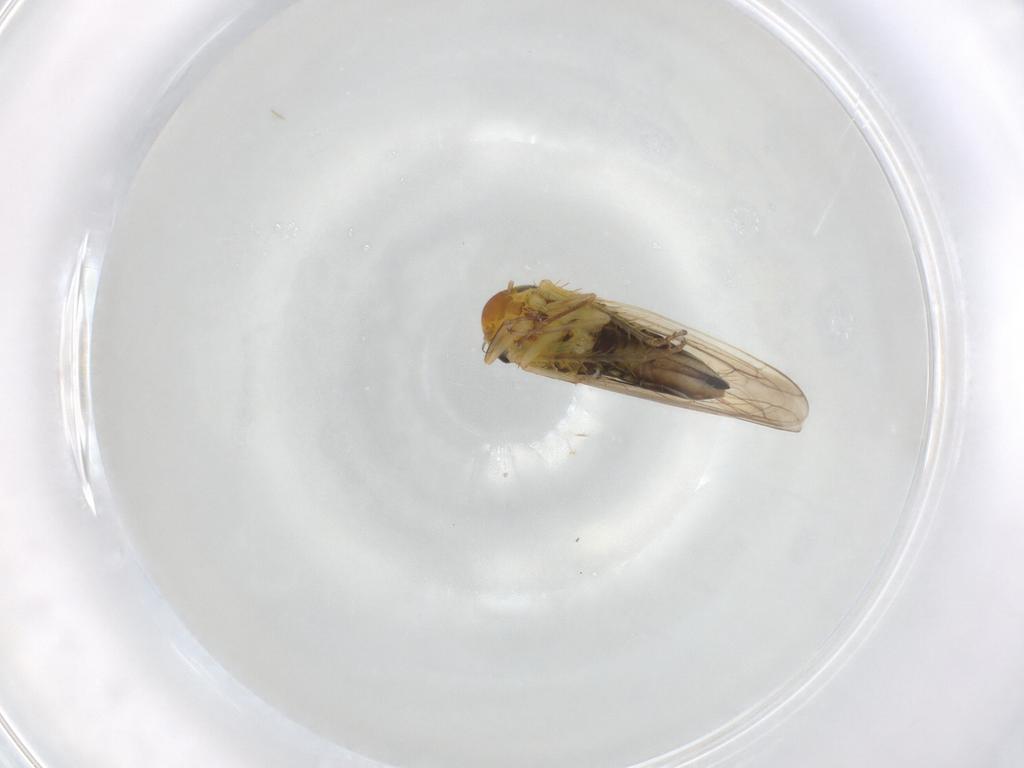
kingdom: Animalia
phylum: Arthropoda
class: Insecta
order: Hemiptera
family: Cicadellidae
